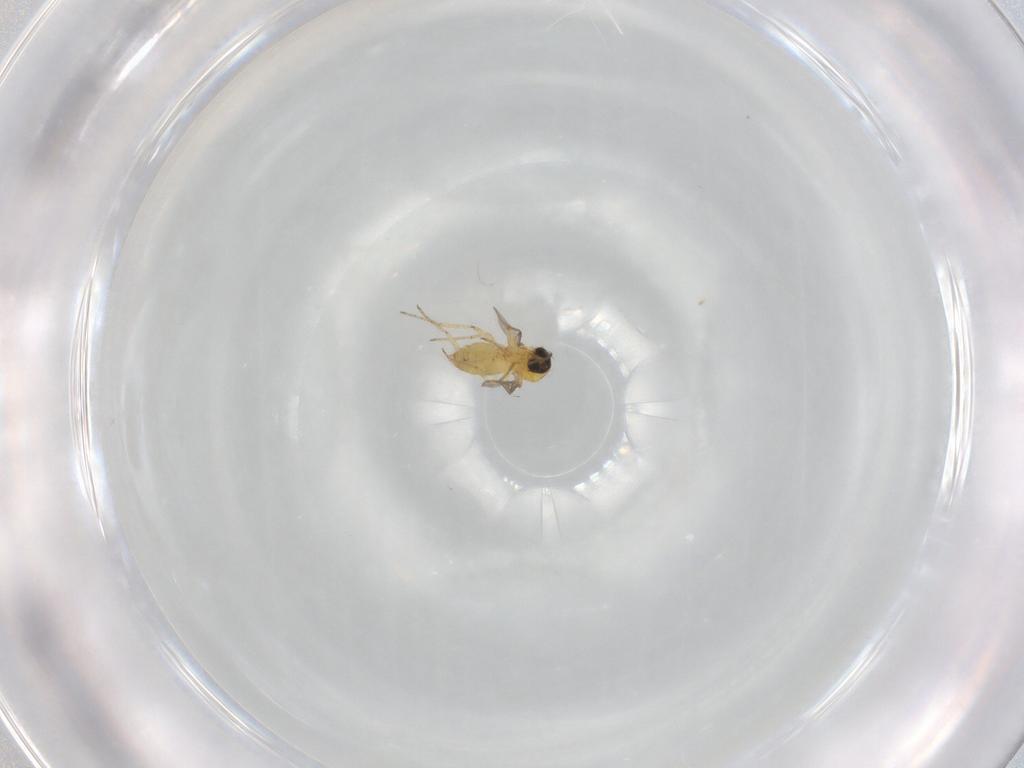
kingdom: Animalia
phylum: Arthropoda
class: Insecta
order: Diptera
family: Ceratopogonidae
